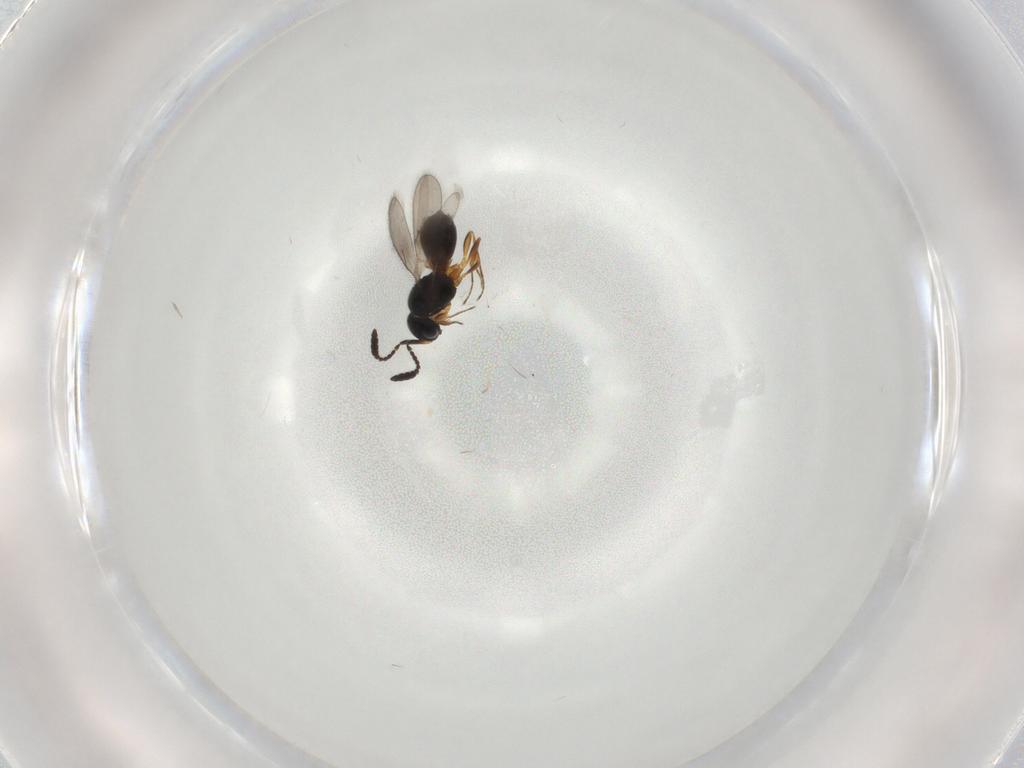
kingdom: Animalia
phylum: Arthropoda
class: Insecta
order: Hymenoptera
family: Scelionidae
